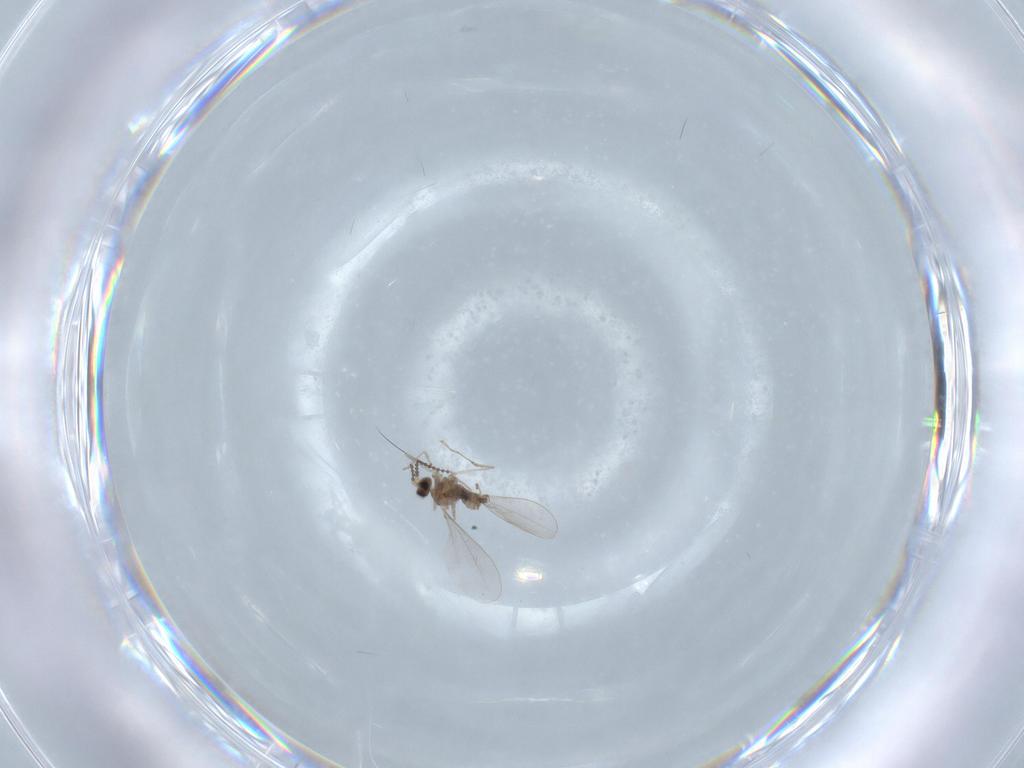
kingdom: Animalia
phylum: Arthropoda
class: Insecta
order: Diptera
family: Cecidomyiidae
